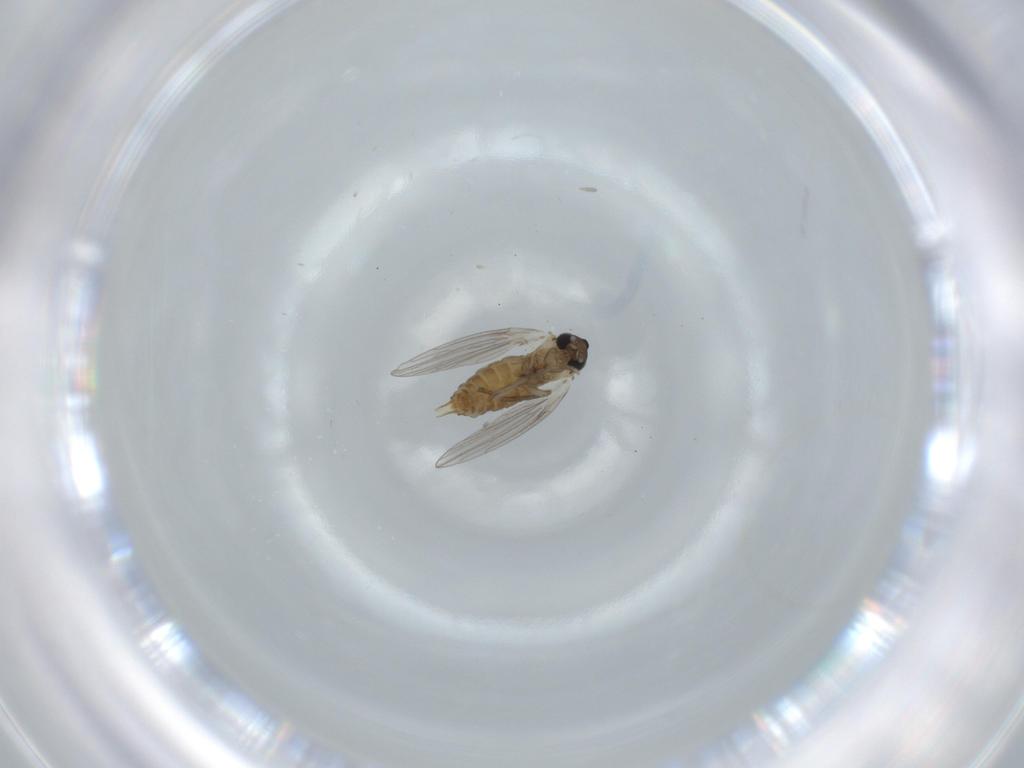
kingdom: Animalia
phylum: Arthropoda
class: Insecta
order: Diptera
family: Psychodidae
